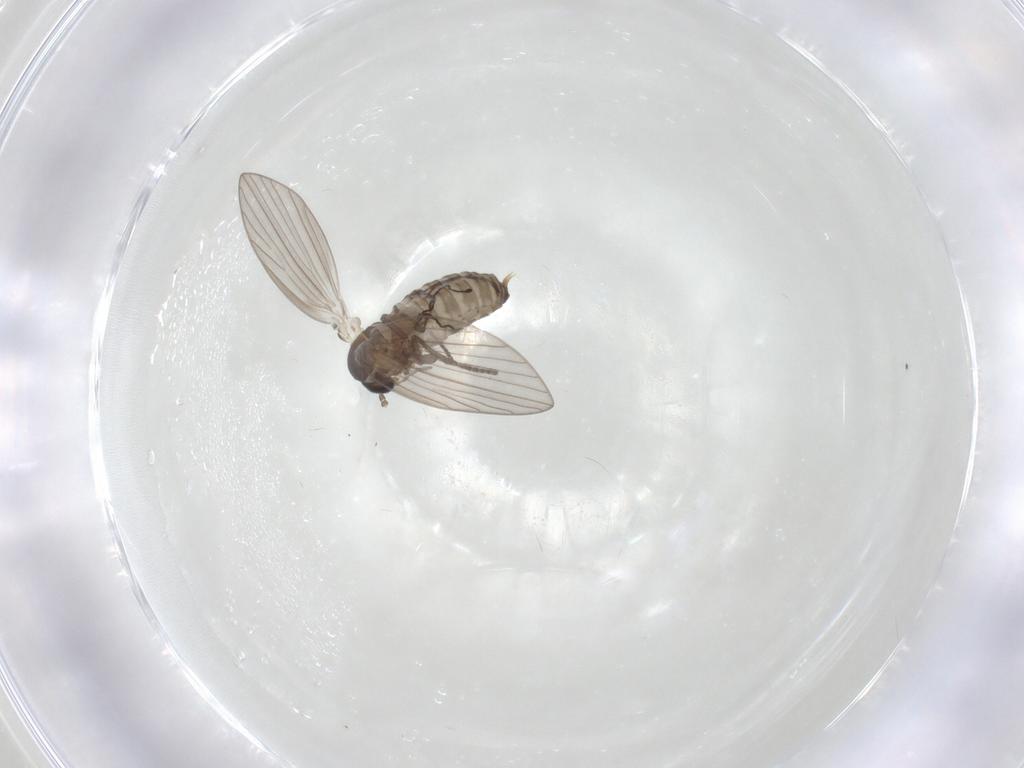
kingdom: Animalia
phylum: Arthropoda
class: Insecta
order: Diptera
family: Psychodidae
